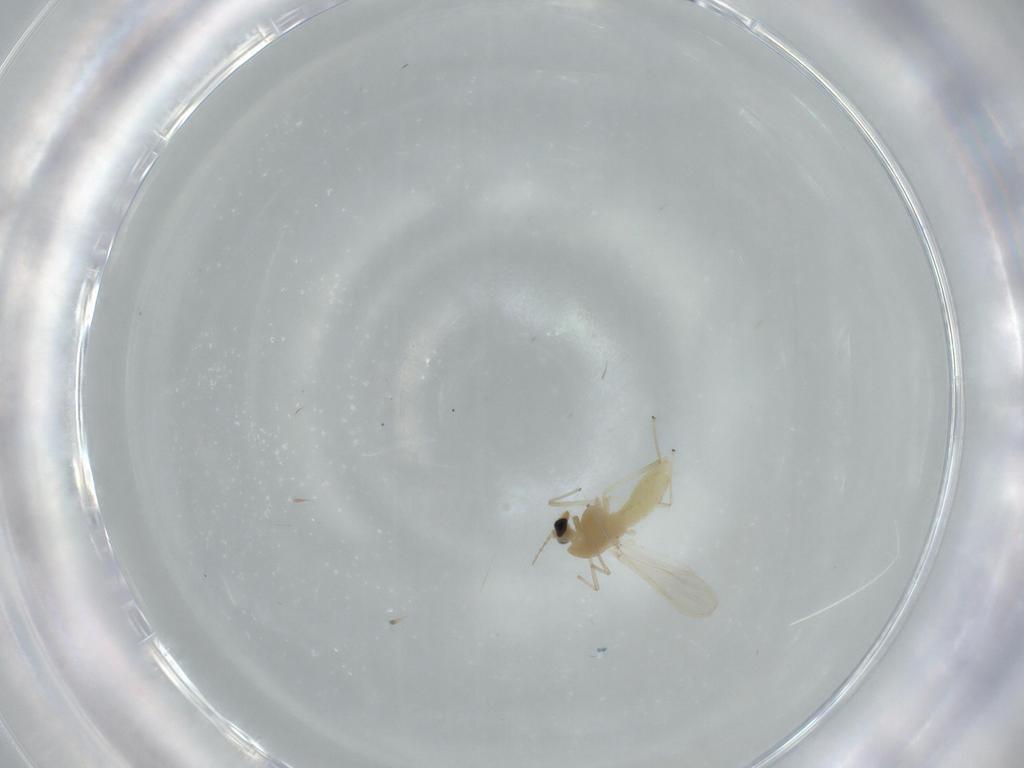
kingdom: Animalia
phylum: Arthropoda
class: Insecta
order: Diptera
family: Chironomidae
